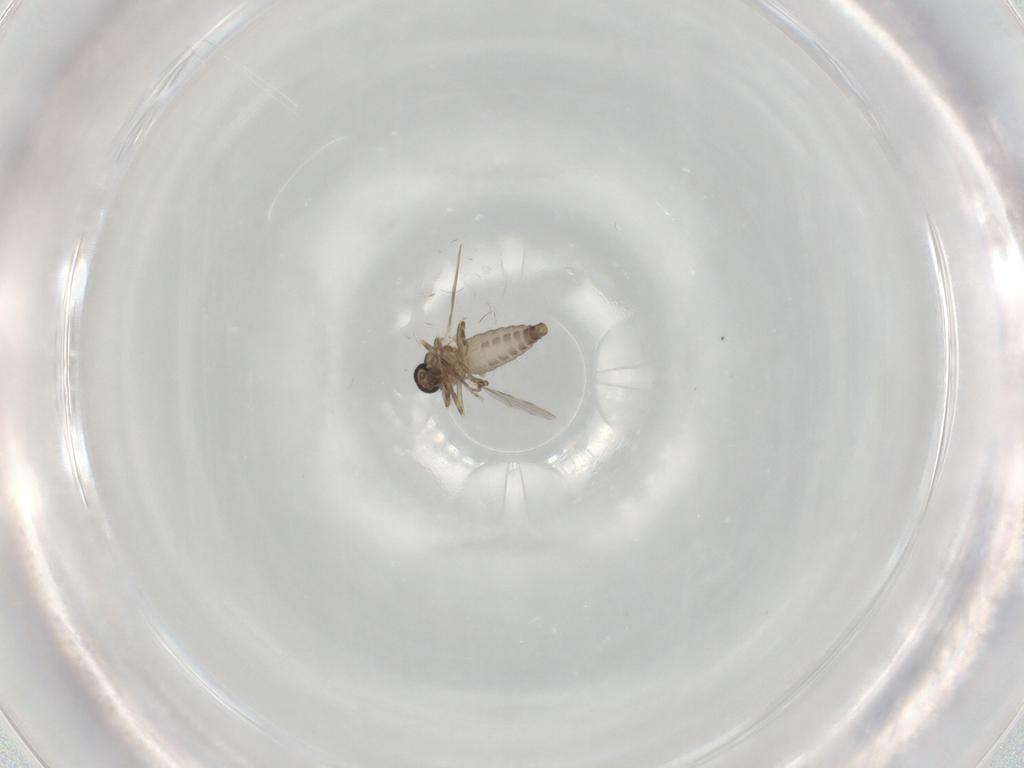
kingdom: Animalia
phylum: Arthropoda
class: Insecta
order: Diptera
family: Ceratopogonidae
